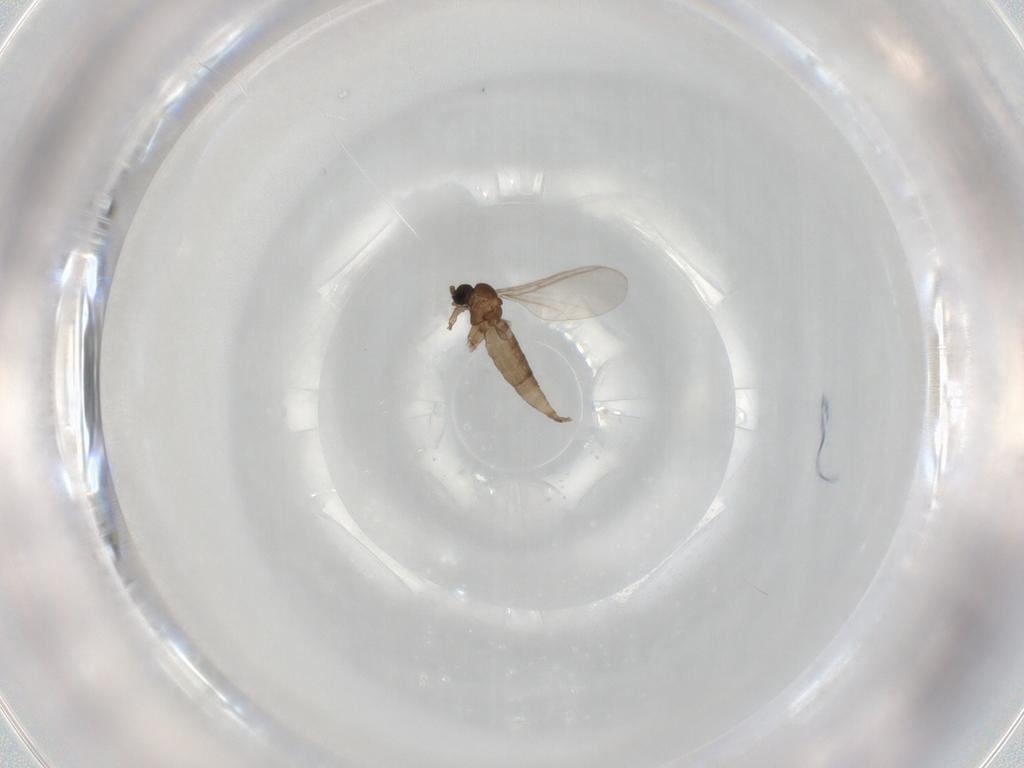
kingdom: Animalia
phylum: Arthropoda
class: Insecta
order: Diptera
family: Sciaridae
